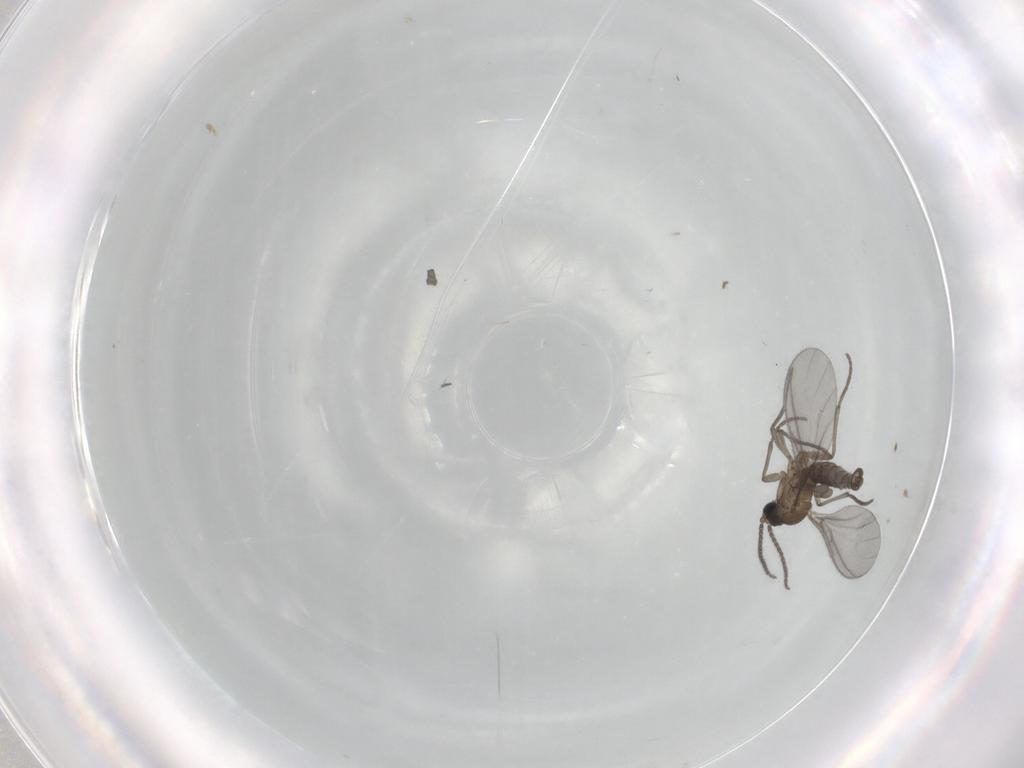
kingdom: Animalia
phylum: Arthropoda
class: Insecta
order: Diptera
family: Sciaridae
